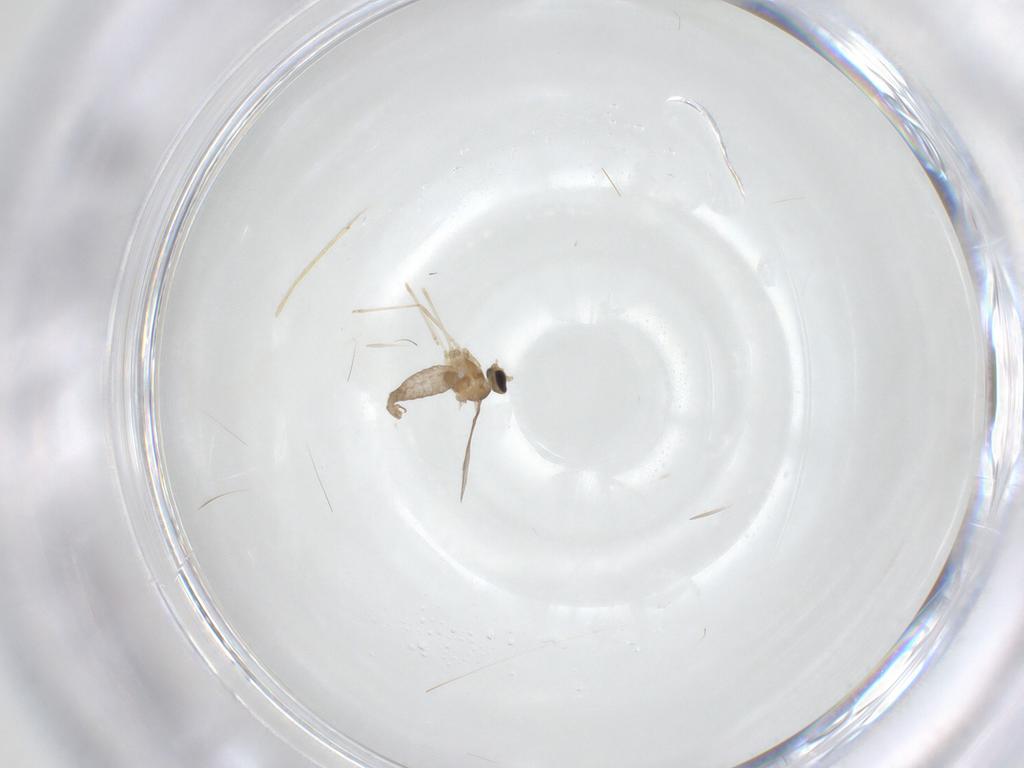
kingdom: Animalia
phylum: Arthropoda
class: Insecta
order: Diptera
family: Cecidomyiidae
